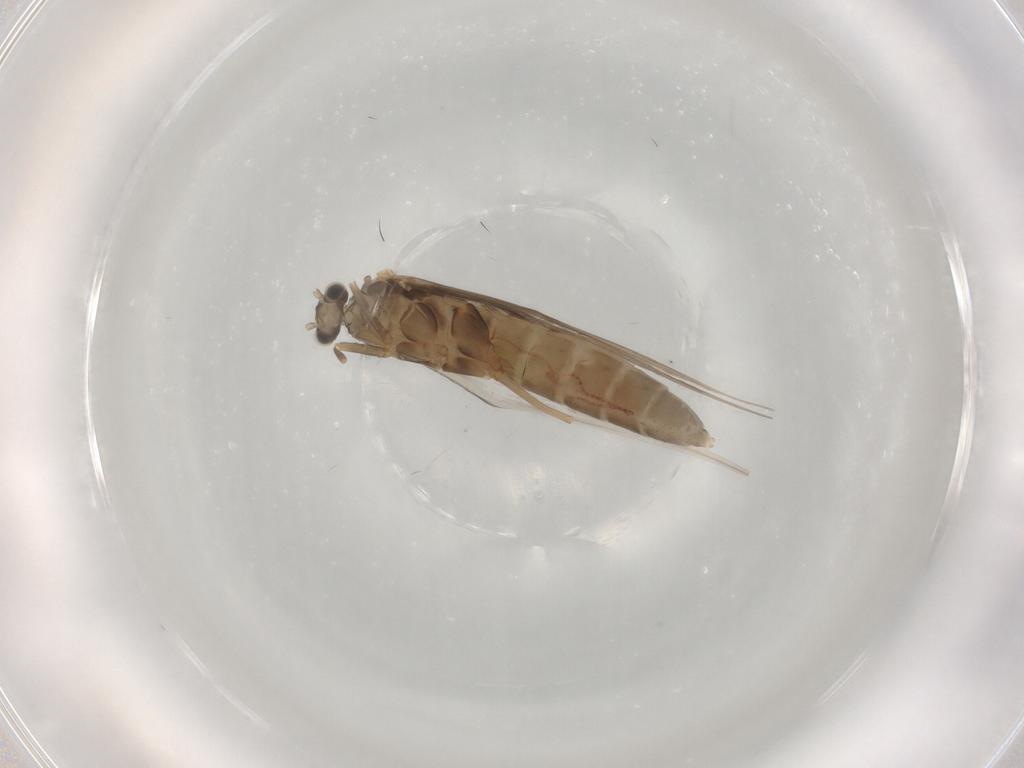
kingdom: Animalia
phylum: Arthropoda
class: Insecta
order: Trichoptera
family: Hydroptilidae
